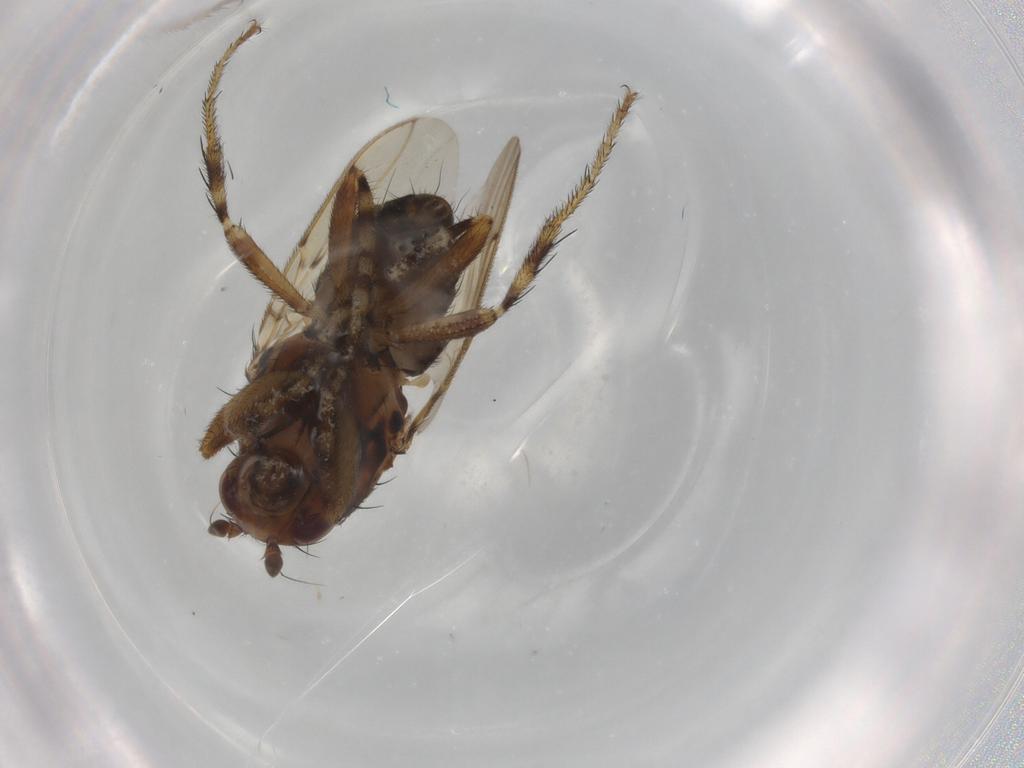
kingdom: Animalia
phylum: Arthropoda
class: Insecta
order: Diptera
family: Sphaeroceridae
